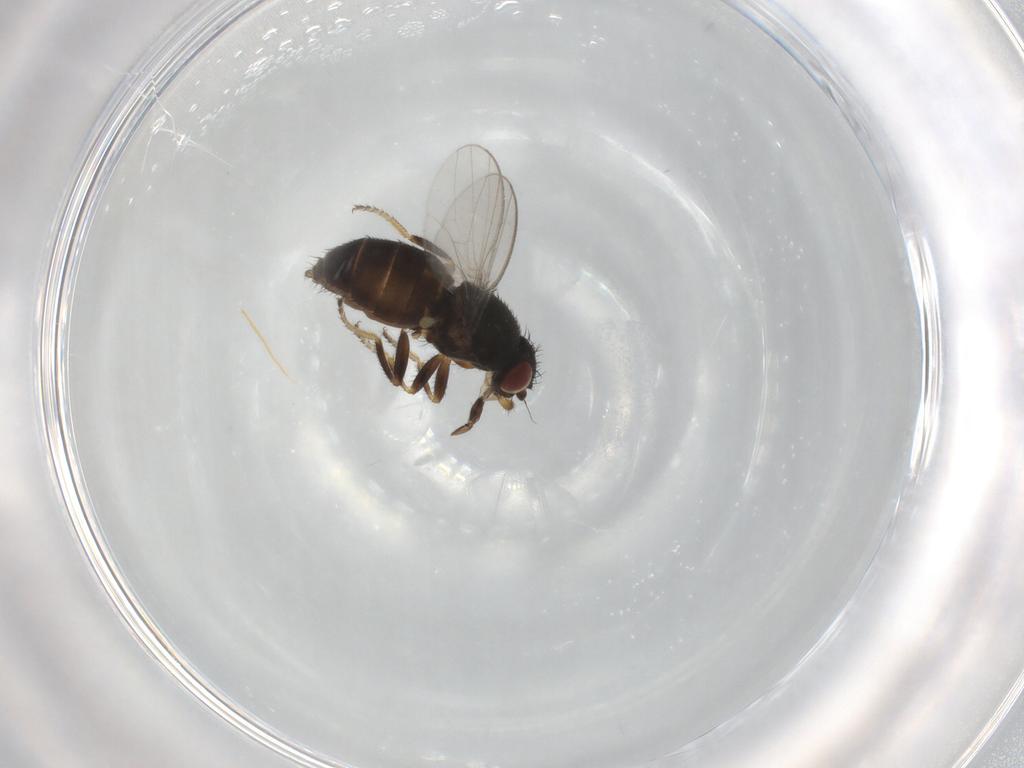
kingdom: Animalia
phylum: Arthropoda
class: Insecta
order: Diptera
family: Milichiidae
